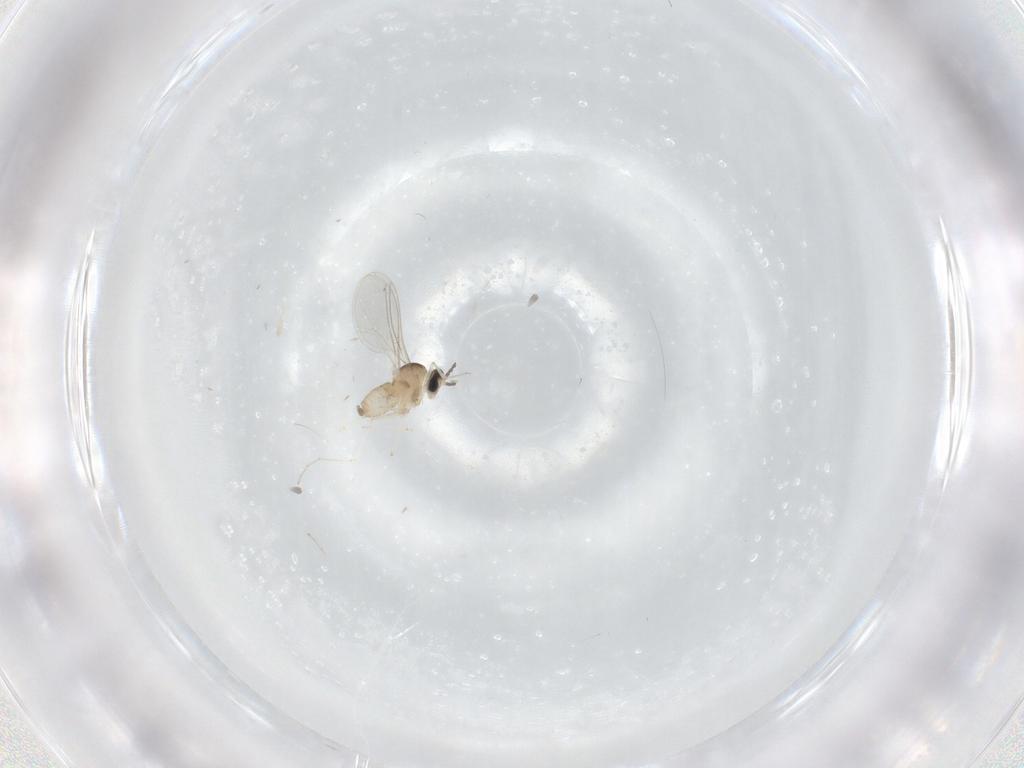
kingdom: Animalia
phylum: Arthropoda
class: Insecta
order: Diptera
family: Cecidomyiidae
